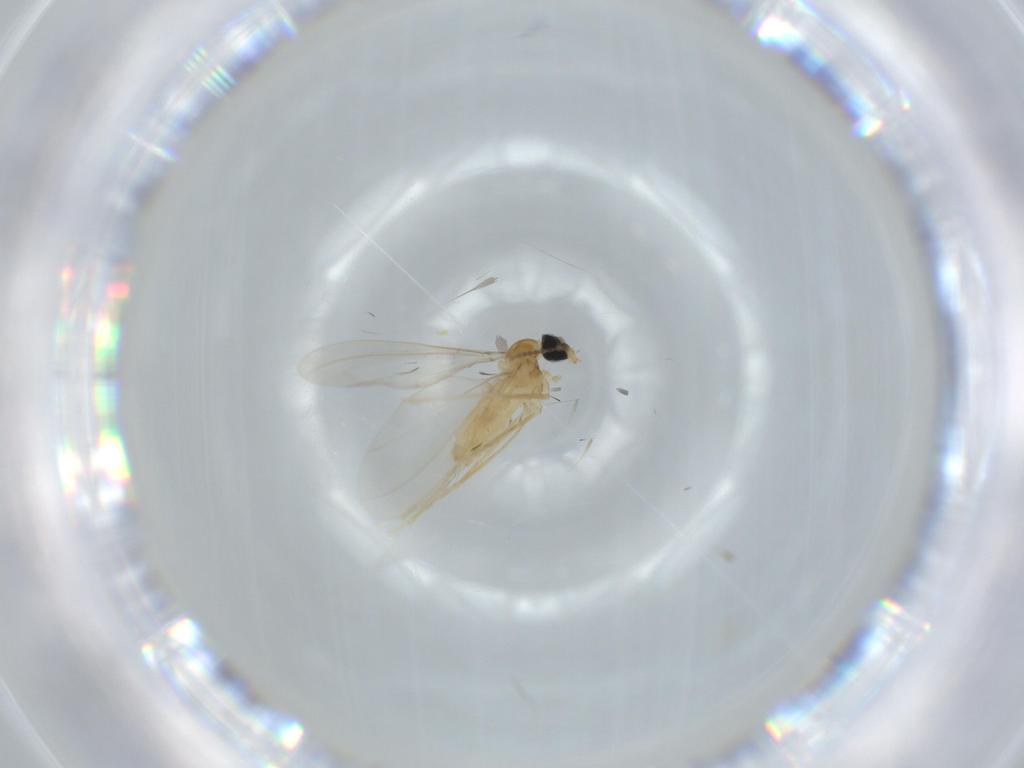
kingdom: Animalia
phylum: Arthropoda
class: Insecta
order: Diptera
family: Cecidomyiidae
